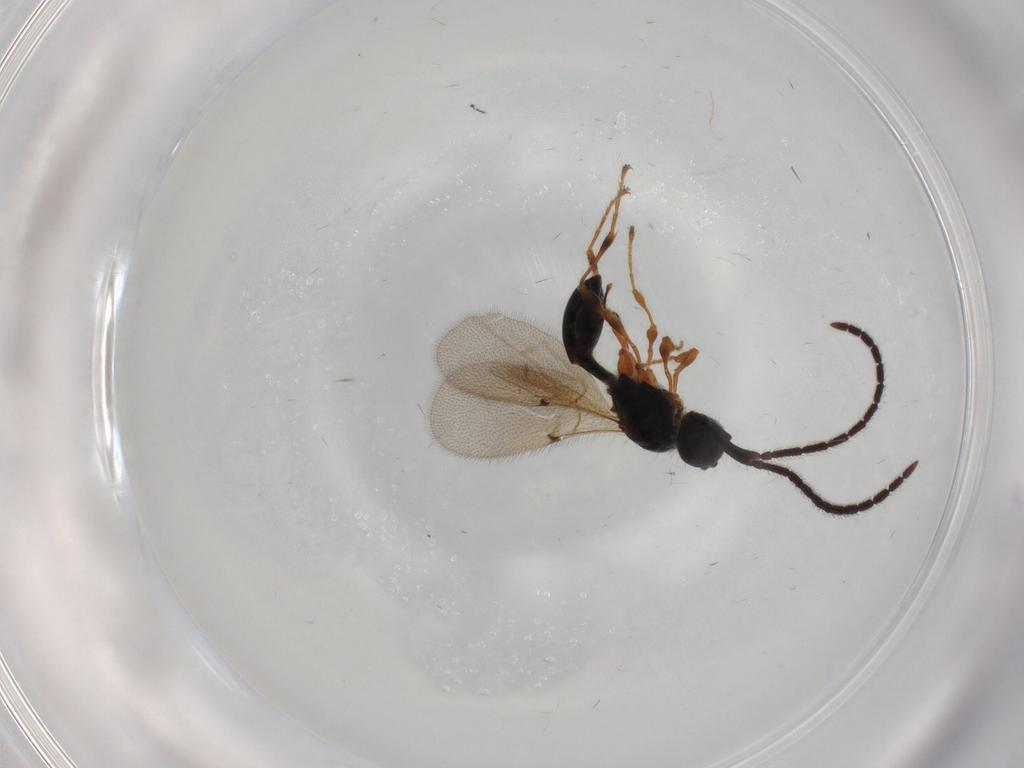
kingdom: Animalia
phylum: Arthropoda
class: Insecta
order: Hymenoptera
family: Diapriidae
